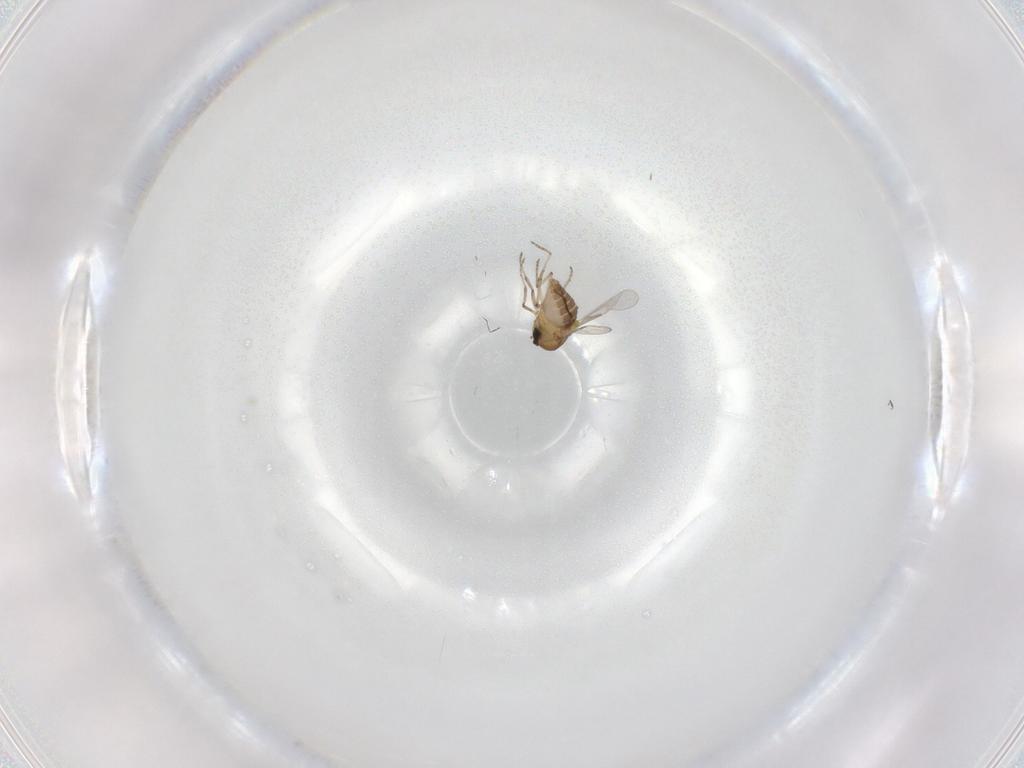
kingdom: Animalia
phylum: Arthropoda
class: Insecta
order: Diptera
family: Ceratopogonidae
